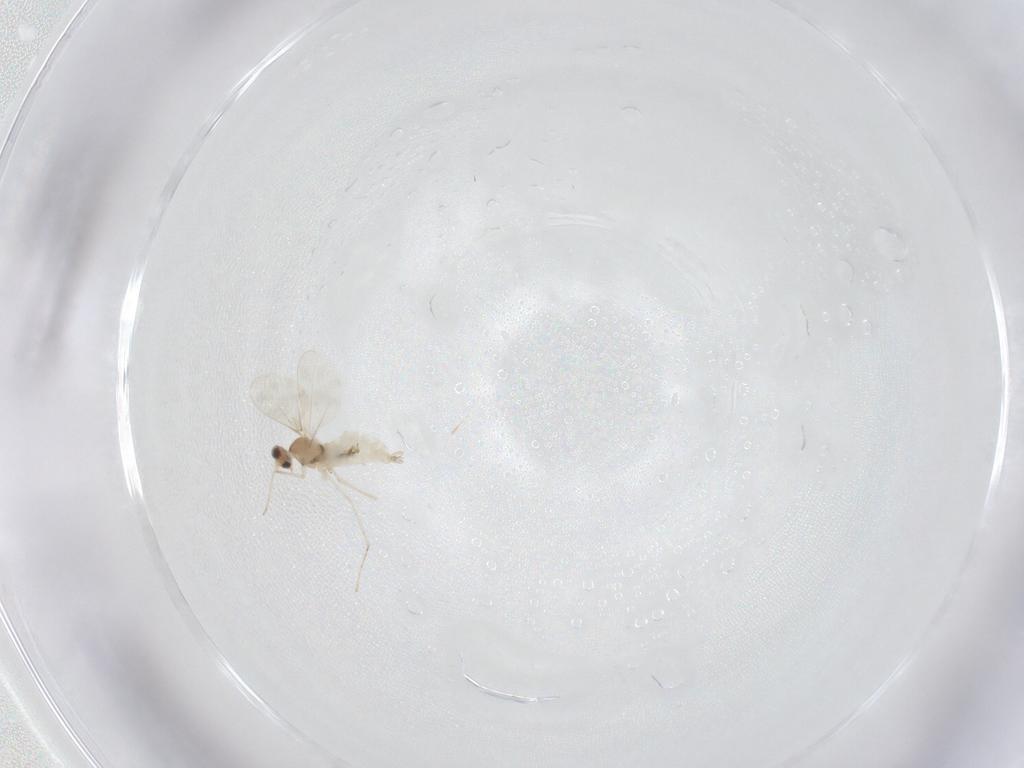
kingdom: Animalia
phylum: Arthropoda
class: Insecta
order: Diptera
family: Cecidomyiidae
